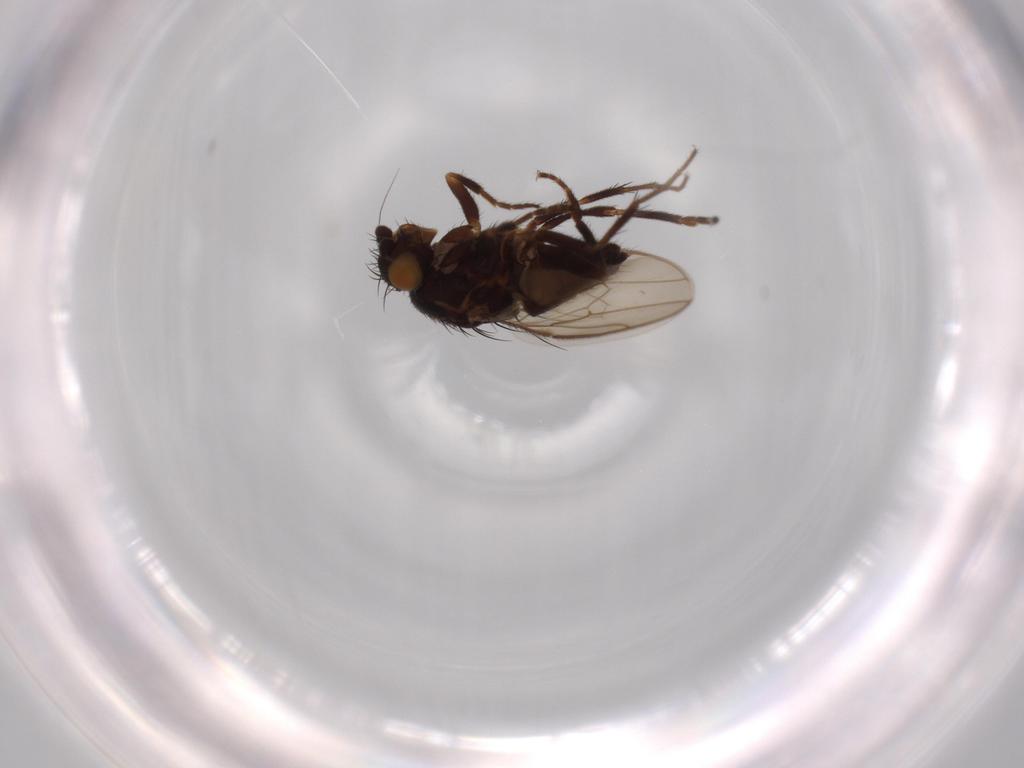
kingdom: Animalia
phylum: Arthropoda
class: Insecta
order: Diptera
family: Sphaeroceridae
